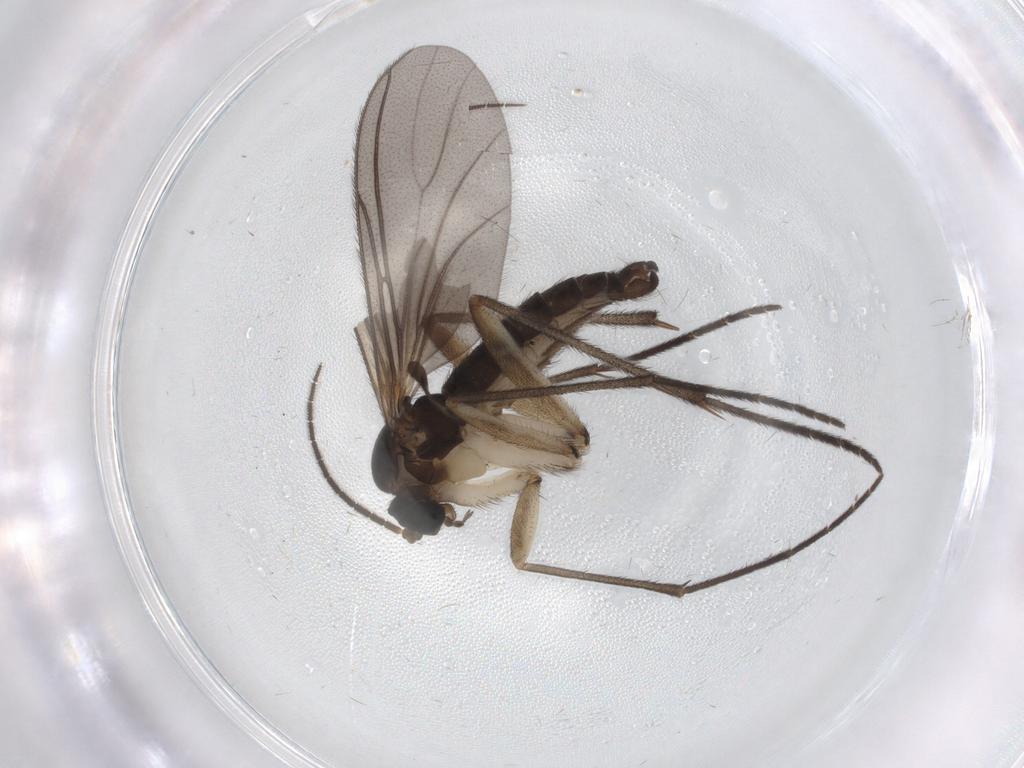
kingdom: Animalia
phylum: Arthropoda
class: Insecta
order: Diptera
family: Sciaridae
